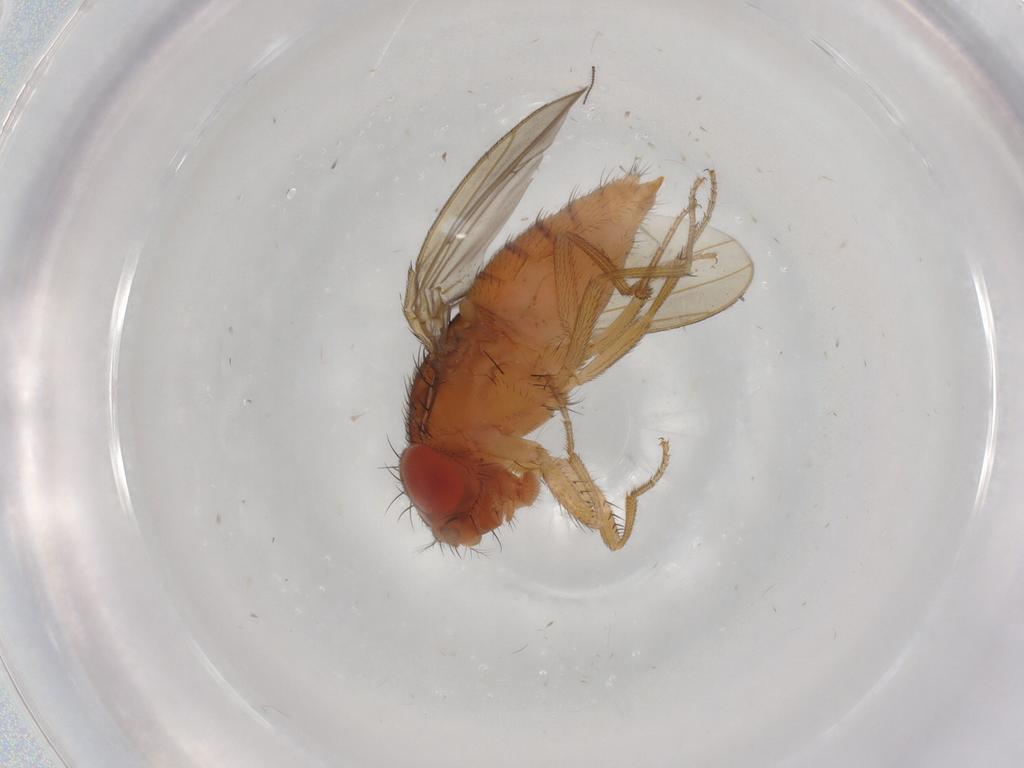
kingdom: Animalia
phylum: Arthropoda
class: Insecta
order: Diptera
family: Drosophilidae
